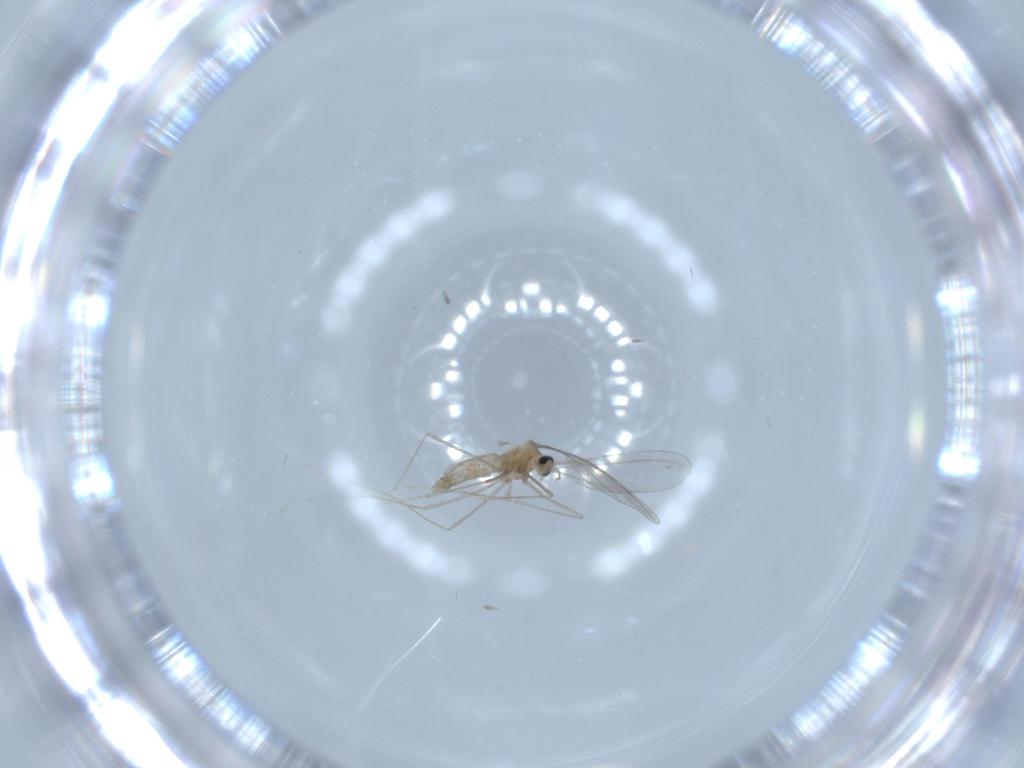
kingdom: Animalia
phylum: Arthropoda
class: Insecta
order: Diptera
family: Cecidomyiidae
